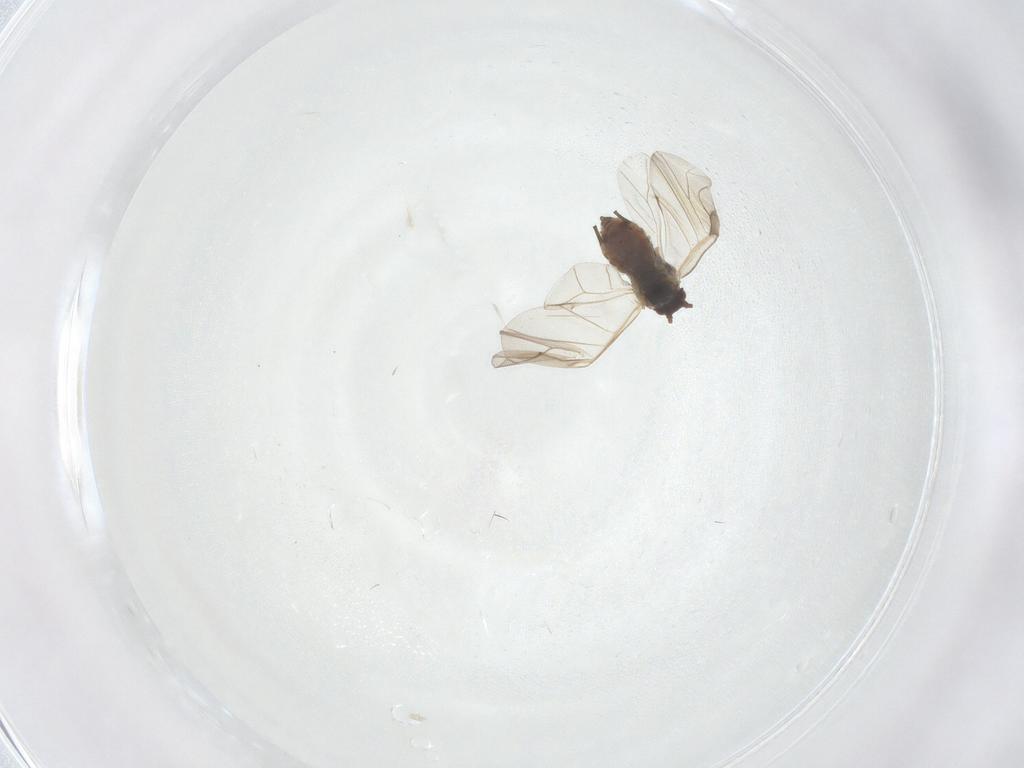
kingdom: Animalia
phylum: Arthropoda
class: Insecta
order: Hemiptera
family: Aphididae
